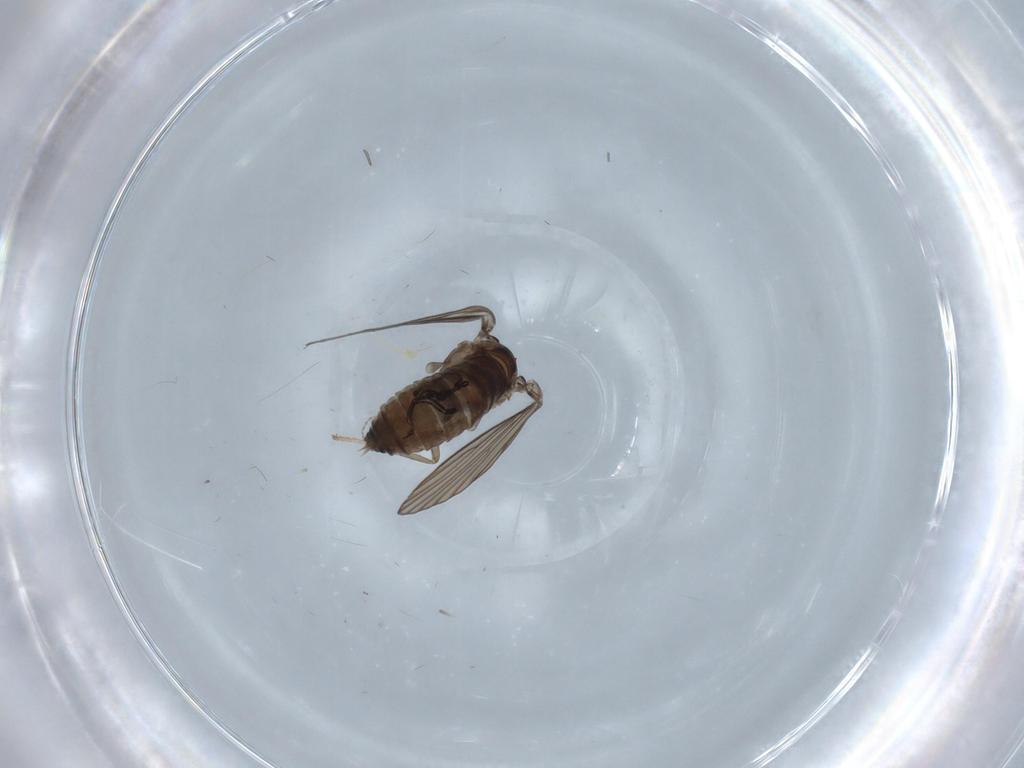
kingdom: Animalia
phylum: Arthropoda
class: Insecta
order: Diptera
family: Psychodidae
